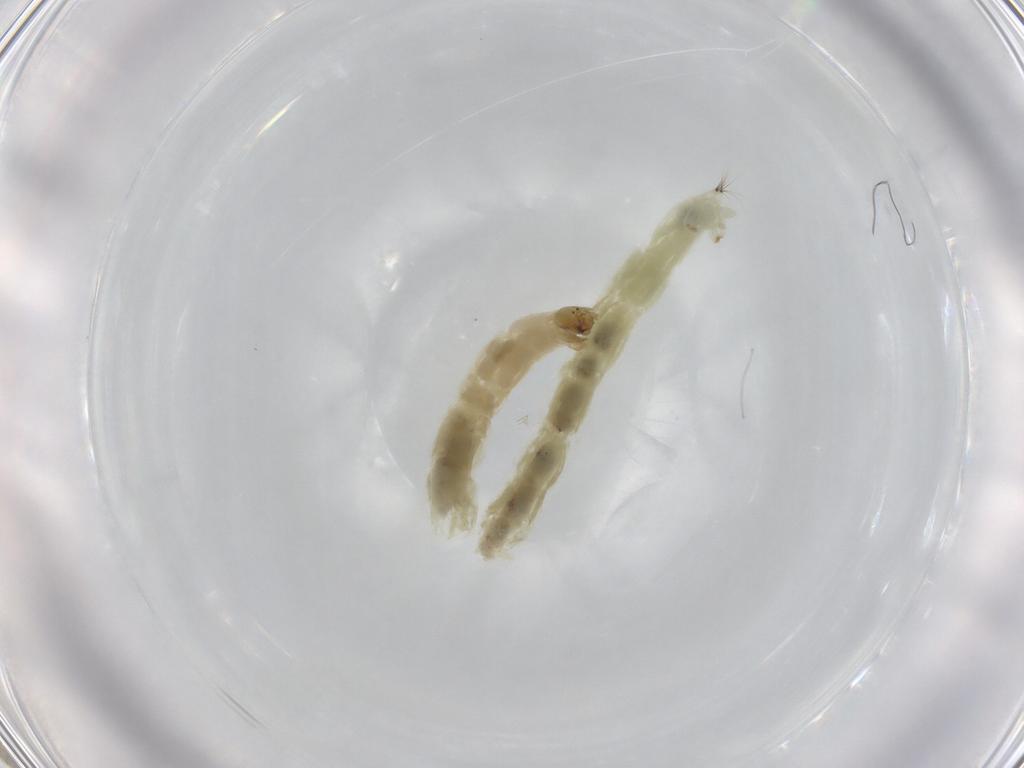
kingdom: Animalia
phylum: Arthropoda
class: Insecta
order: Diptera
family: Chironomidae
